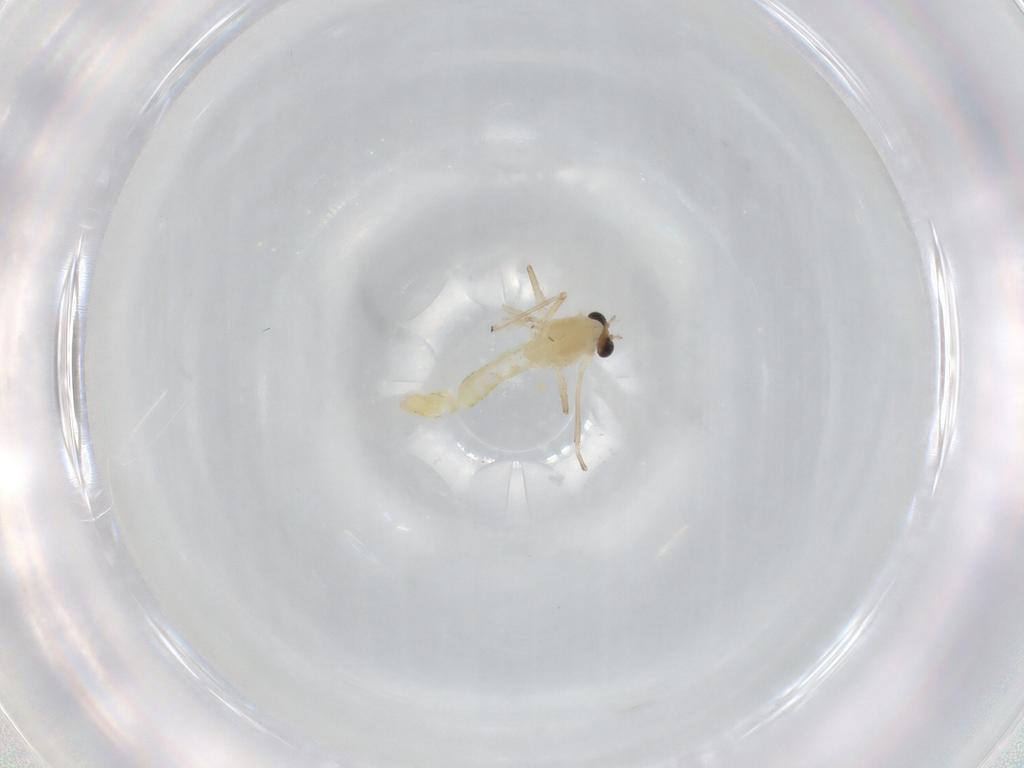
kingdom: Animalia
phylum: Arthropoda
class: Insecta
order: Diptera
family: Chironomidae
